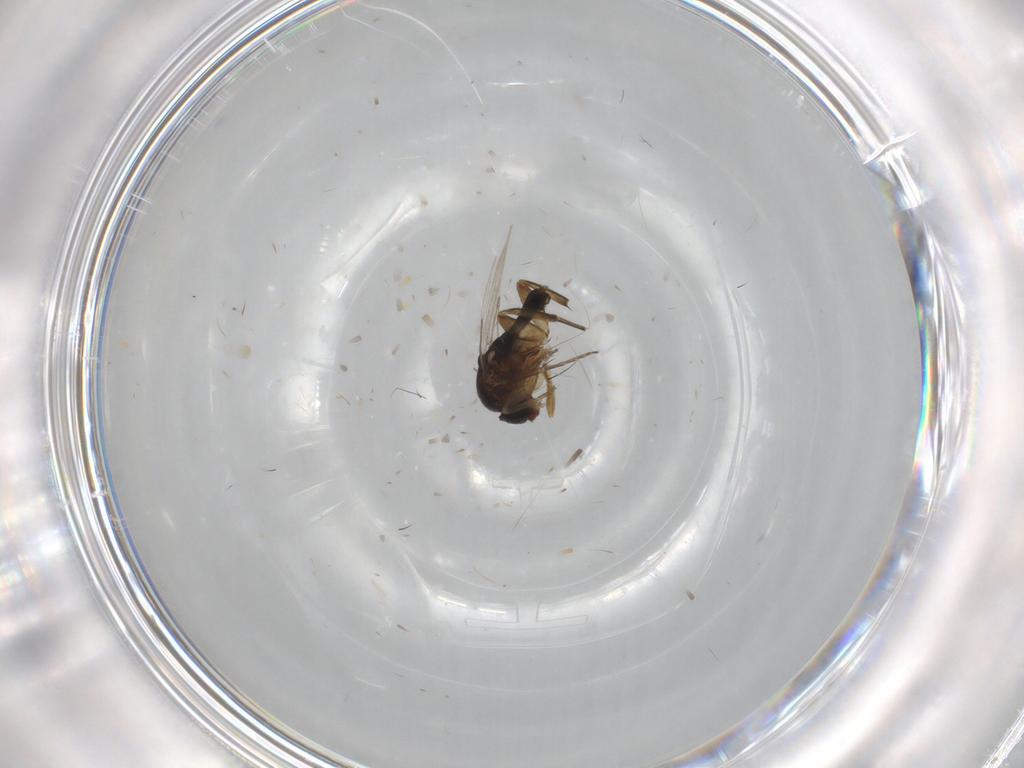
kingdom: Animalia
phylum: Arthropoda
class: Insecta
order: Diptera
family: Phoridae
